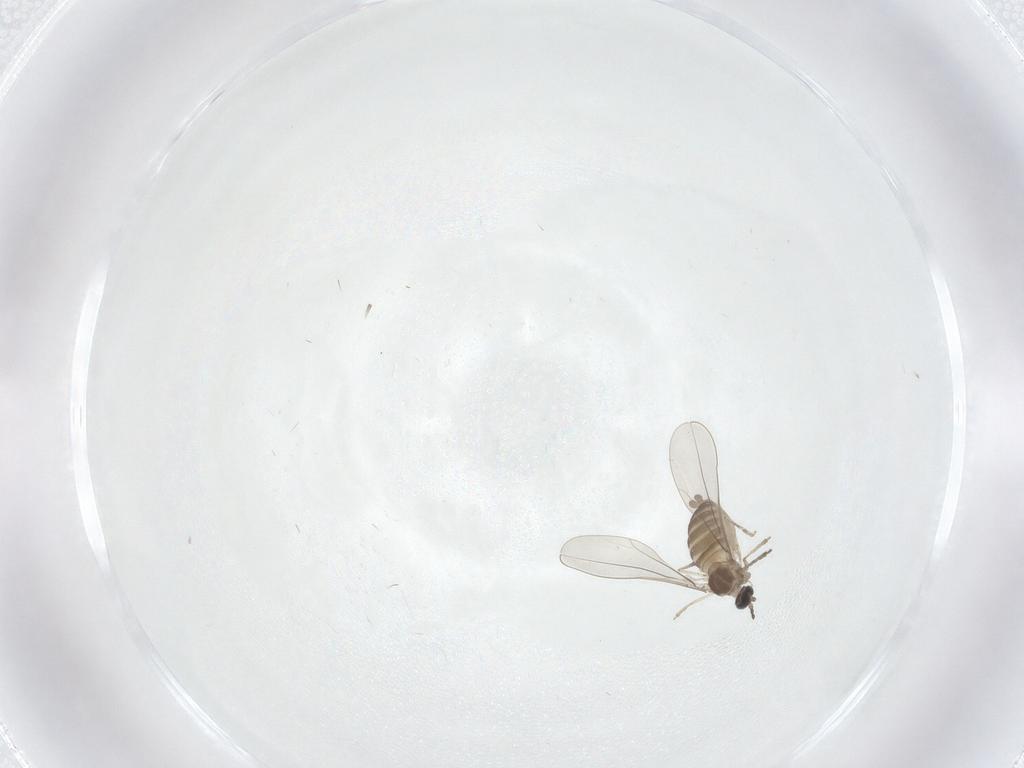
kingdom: Animalia
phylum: Arthropoda
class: Insecta
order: Diptera
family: Cecidomyiidae
